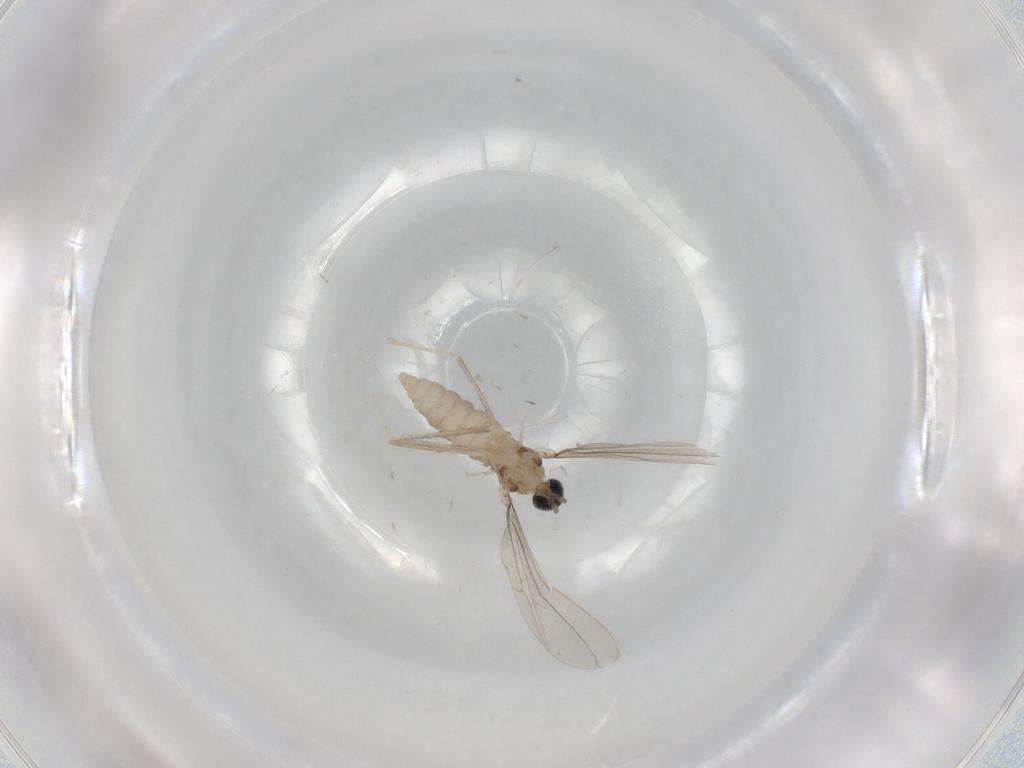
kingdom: Animalia
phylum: Arthropoda
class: Insecta
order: Diptera
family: Cecidomyiidae
